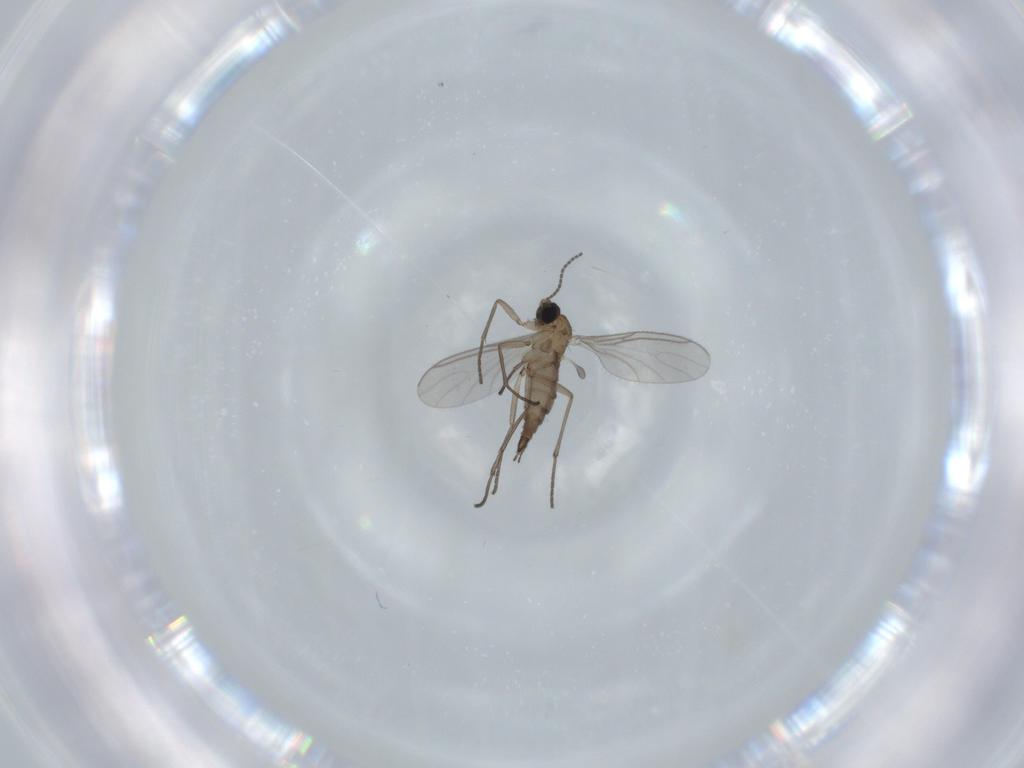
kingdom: Animalia
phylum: Arthropoda
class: Insecta
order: Diptera
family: Sciaridae
